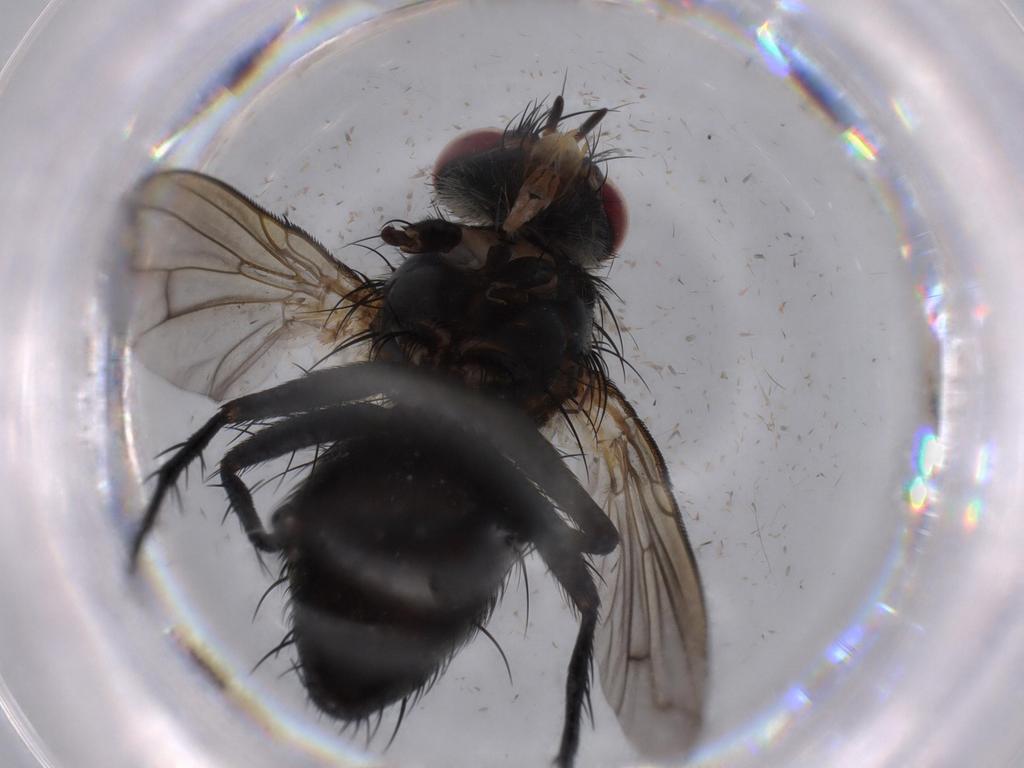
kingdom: Animalia
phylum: Arthropoda
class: Insecta
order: Diptera
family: Milichiidae
